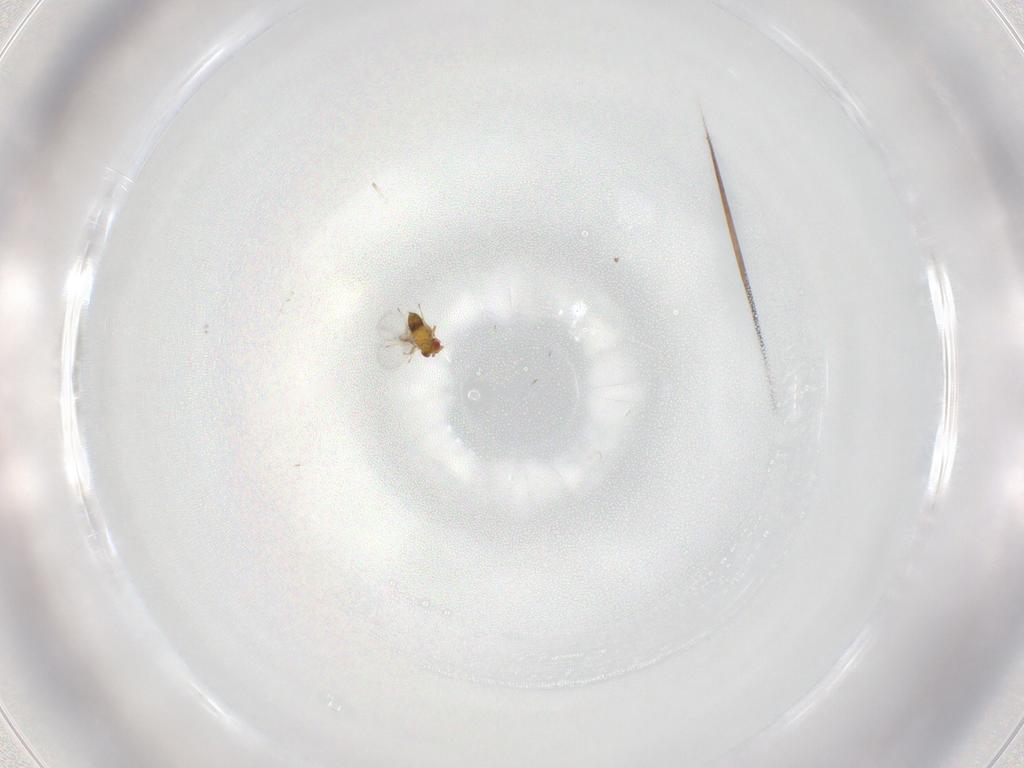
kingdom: Animalia
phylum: Arthropoda
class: Insecta
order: Hymenoptera
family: Trichogrammatidae
